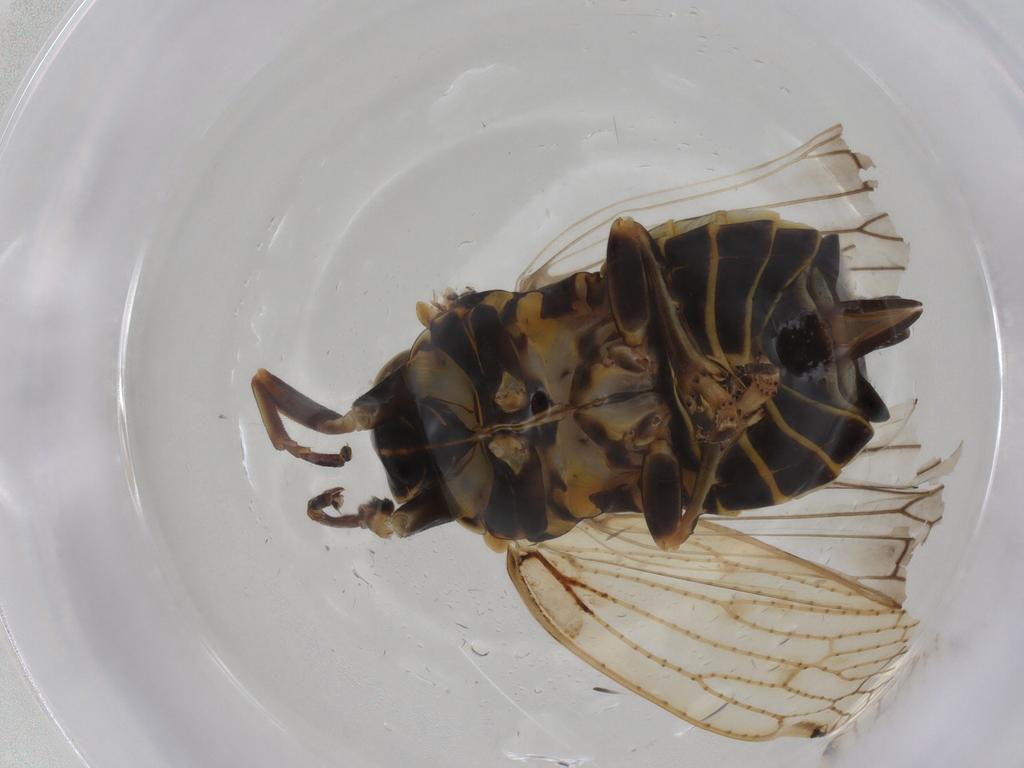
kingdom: Animalia
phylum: Arthropoda
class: Insecta
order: Hemiptera
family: Cixiidae
